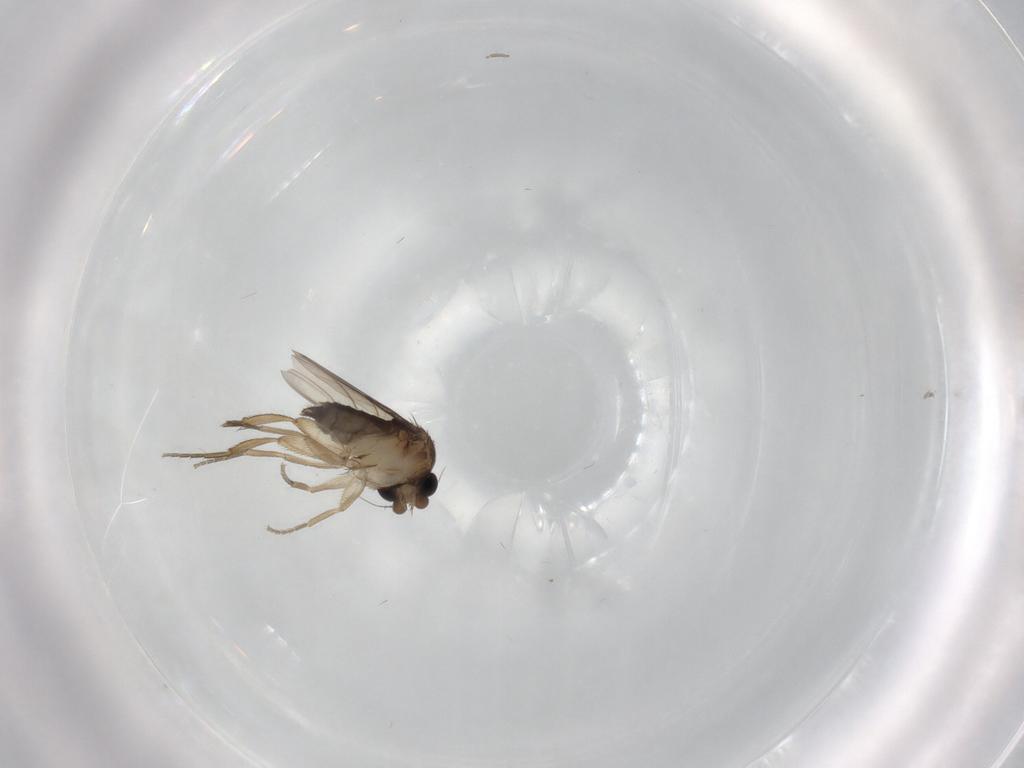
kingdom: Animalia
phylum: Arthropoda
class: Insecta
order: Diptera
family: Phoridae
